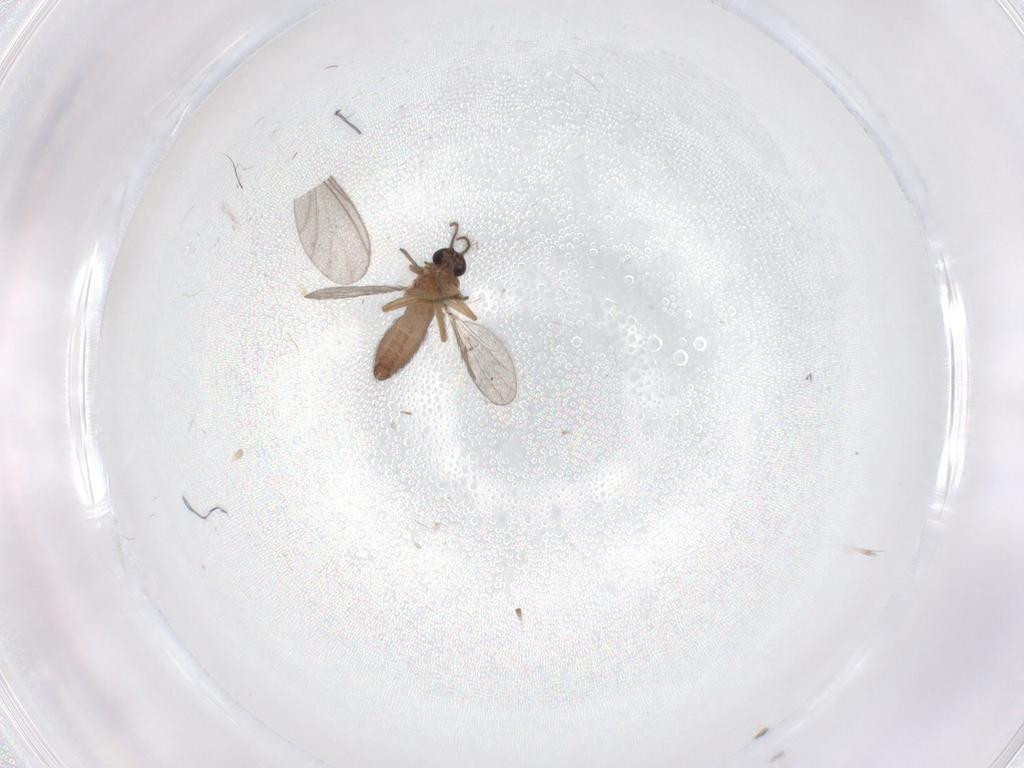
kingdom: Animalia
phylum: Arthropoda
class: Insecta
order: Diptera
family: Ceratopogonidae
